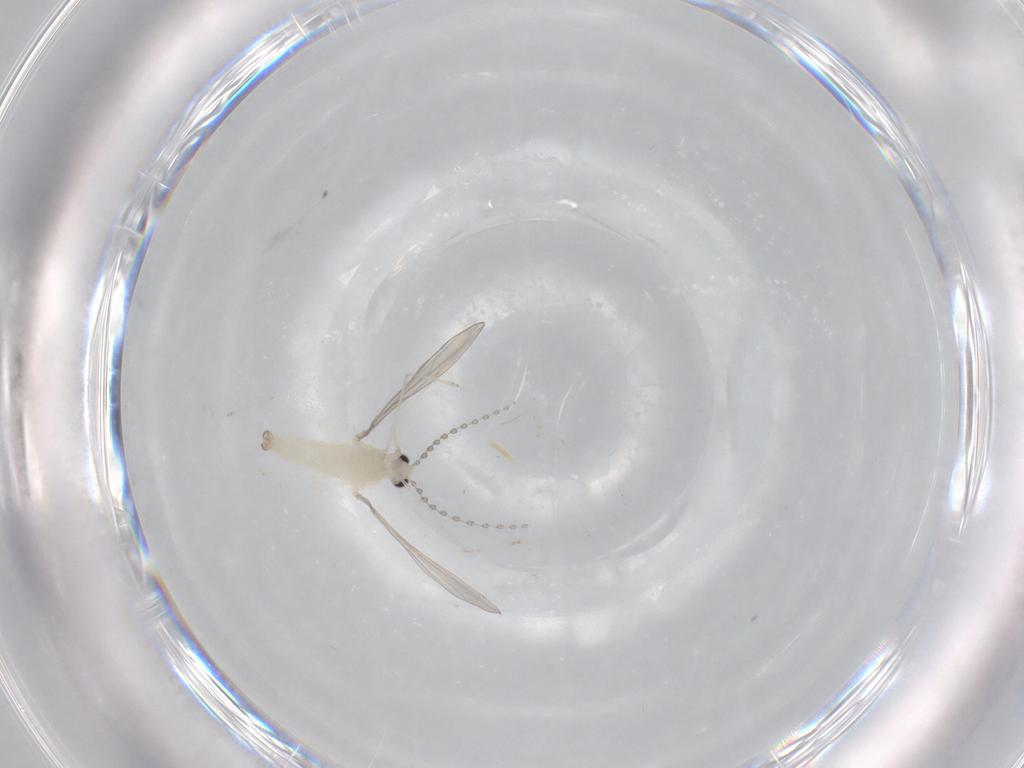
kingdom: Animalia
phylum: Arthropoda
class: Insecta
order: Diptera
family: Cecidomyiidae
